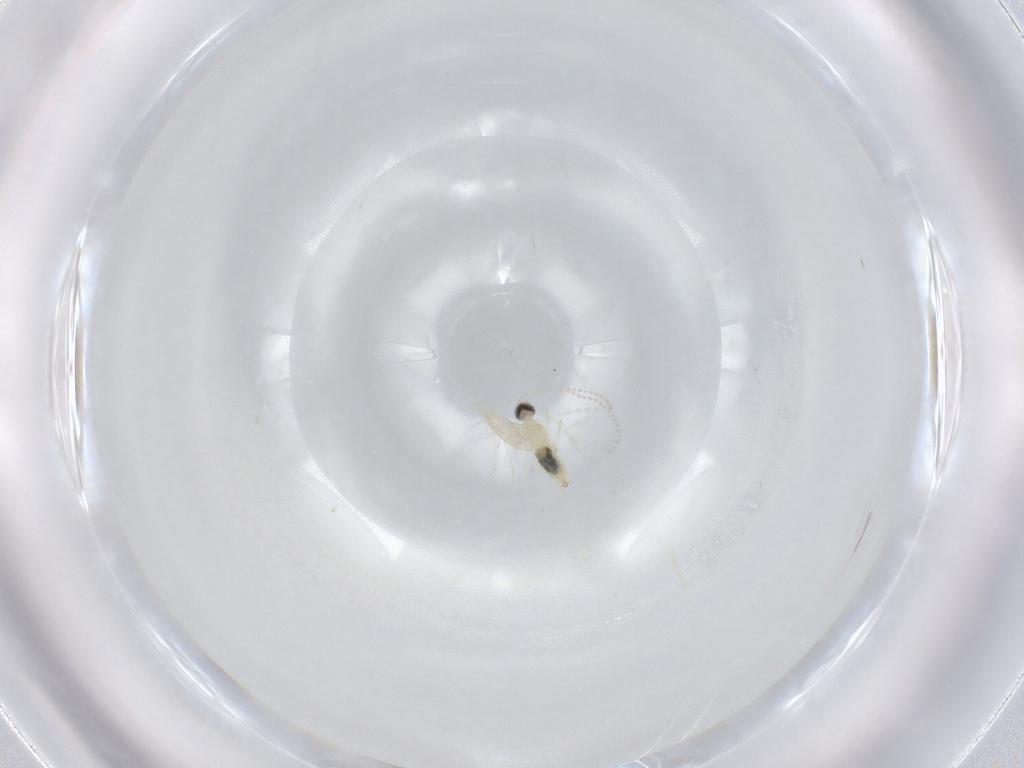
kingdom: Animalia
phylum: Arthropoda
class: Insecta
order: Diptera
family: Cecidomyiidae
